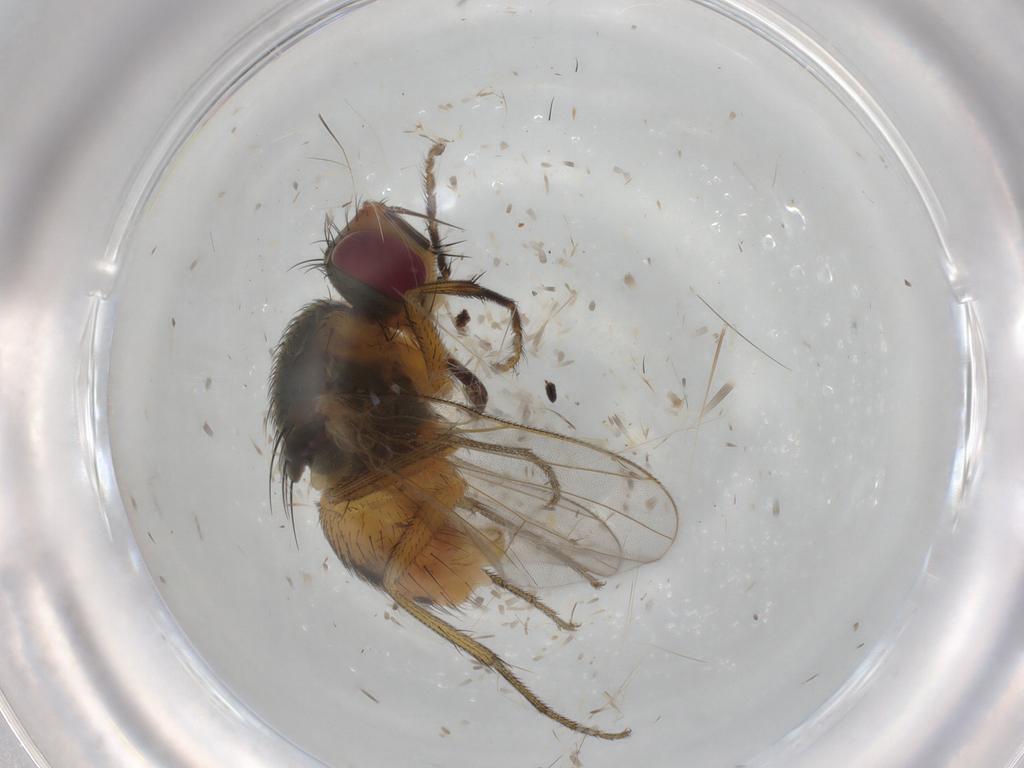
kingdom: Animalia
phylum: Arthropoda
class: Insecta
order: Diptera
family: Muscidae
